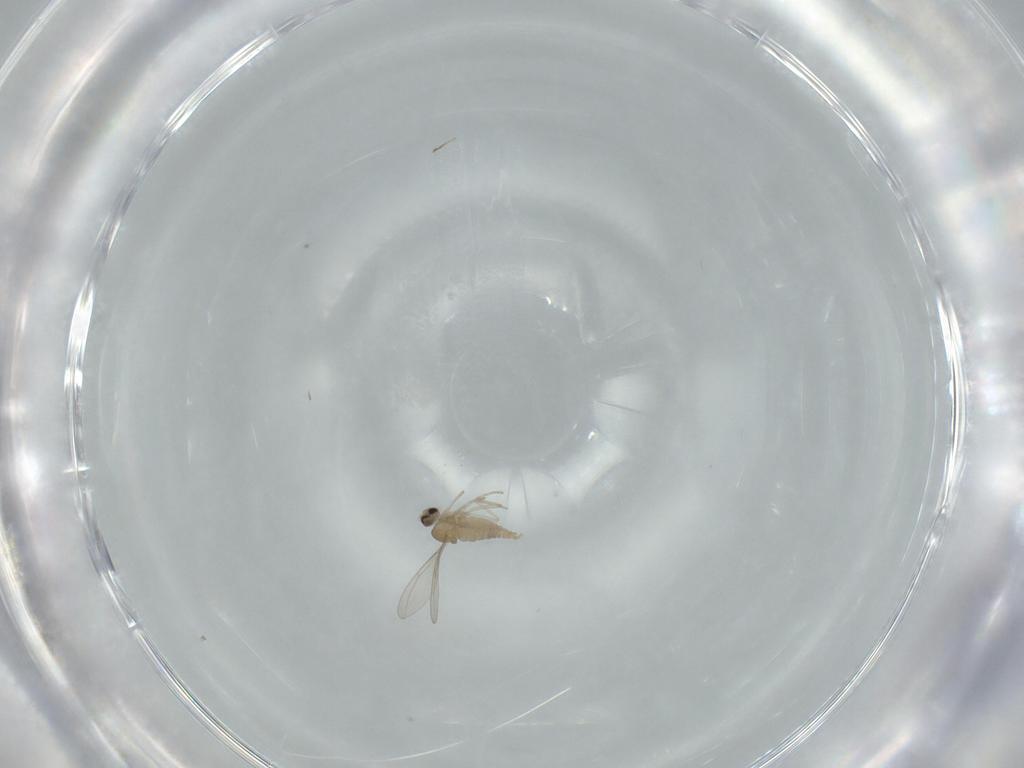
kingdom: Animalia
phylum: Arthropoda
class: Insecta
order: Diptera
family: Cecidomyiidae
